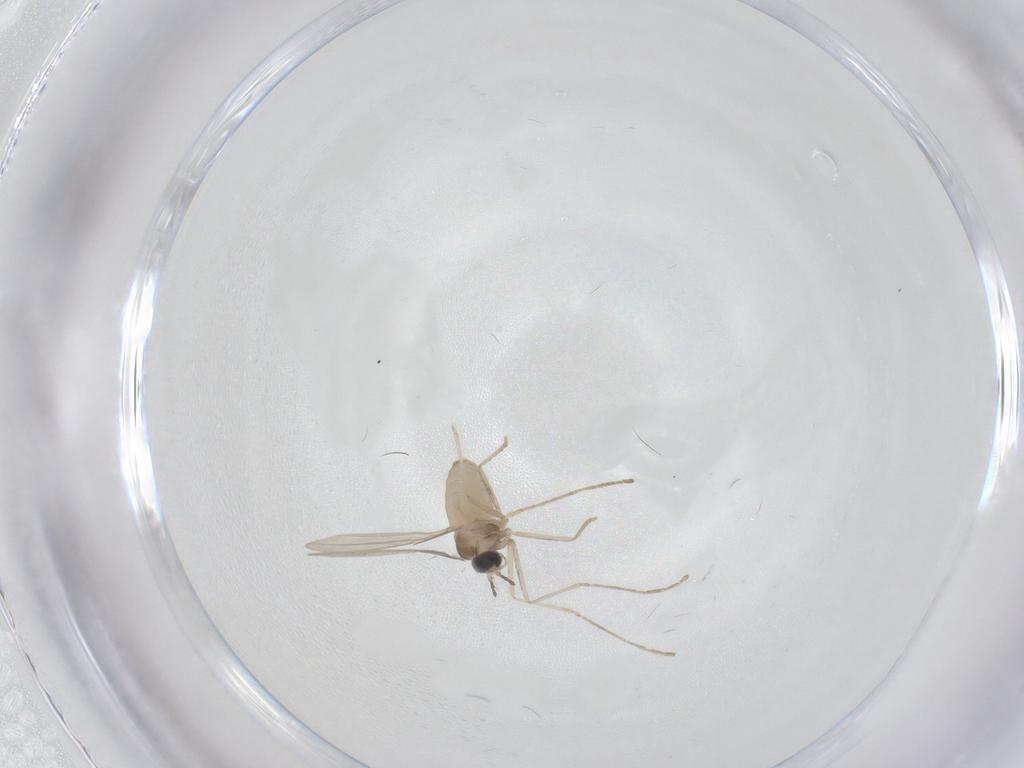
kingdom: Animalia
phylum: Arthropoda
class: Insecta
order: Diptera
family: Cecidomyiidae
